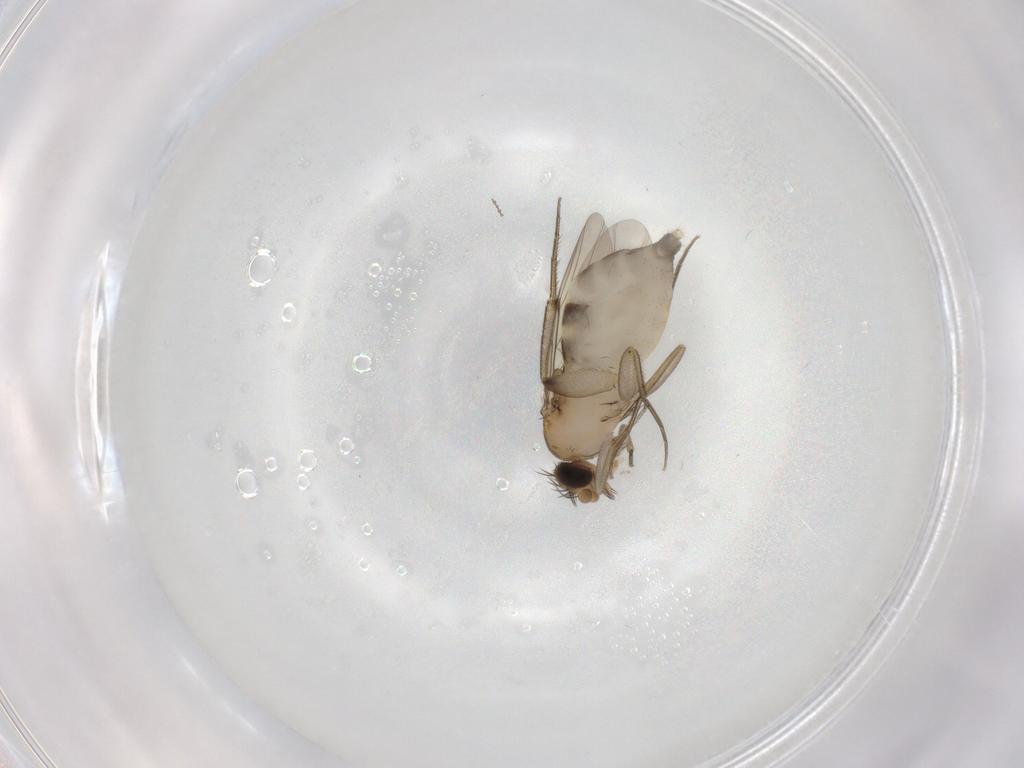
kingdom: Animalia
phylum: Arthropoda
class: Insecta
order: Diptera
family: Phoridae
